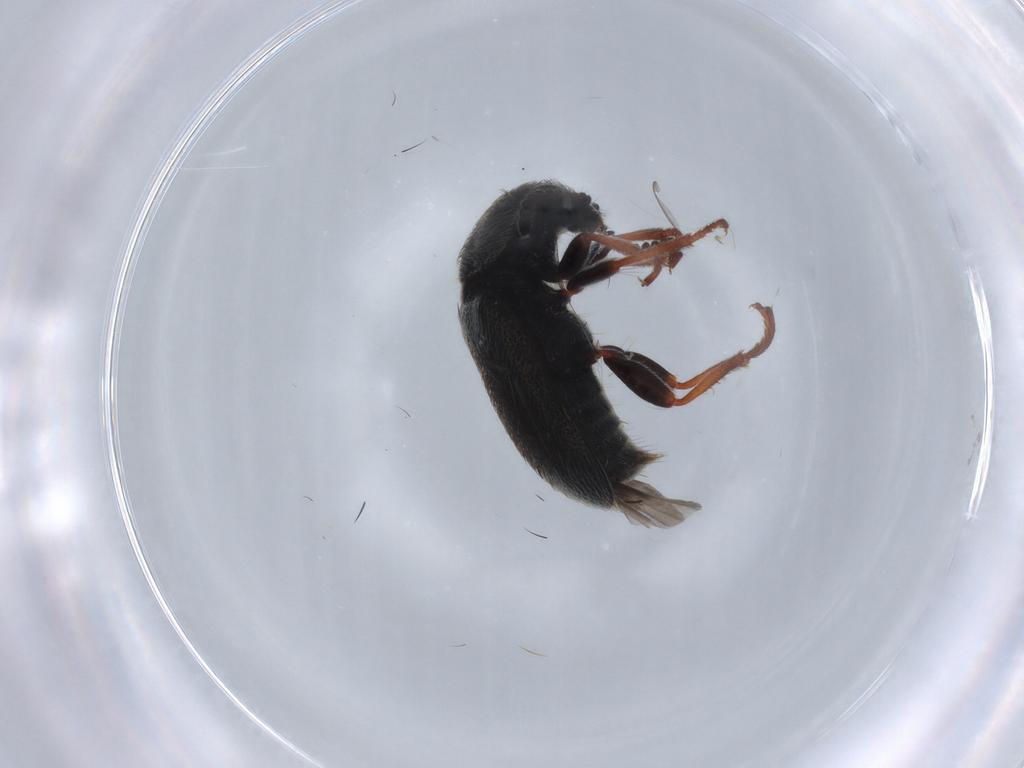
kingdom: Animalia
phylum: Arthropoda
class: Insecta
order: Coleoptera
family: Melyridae
